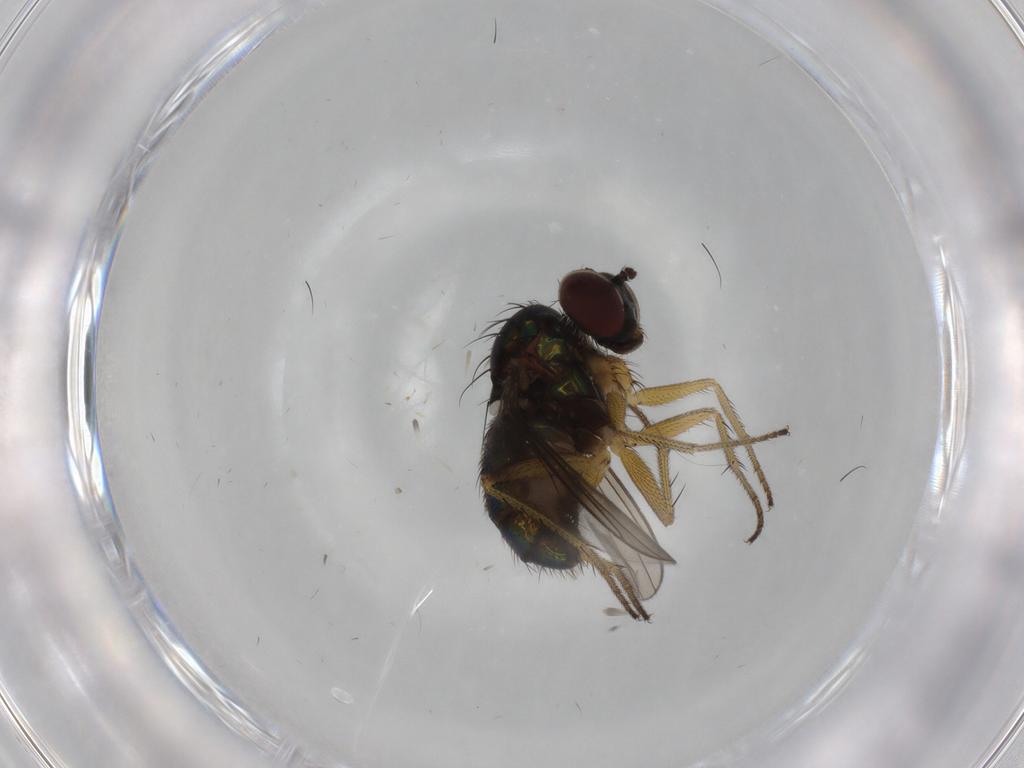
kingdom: Animalia
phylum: Arthropoda
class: Insecta
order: Diptera
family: Dolichopodidae
